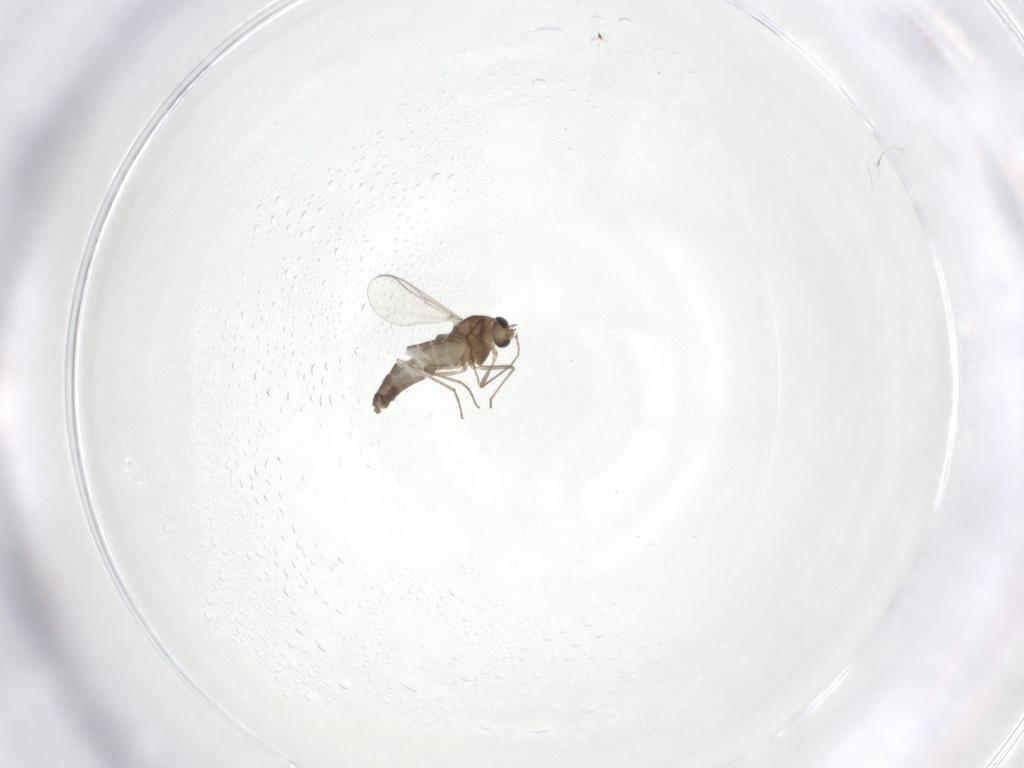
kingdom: Animalia
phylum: Arthropoda
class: Insecta
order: Diptera
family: Chironomidae
